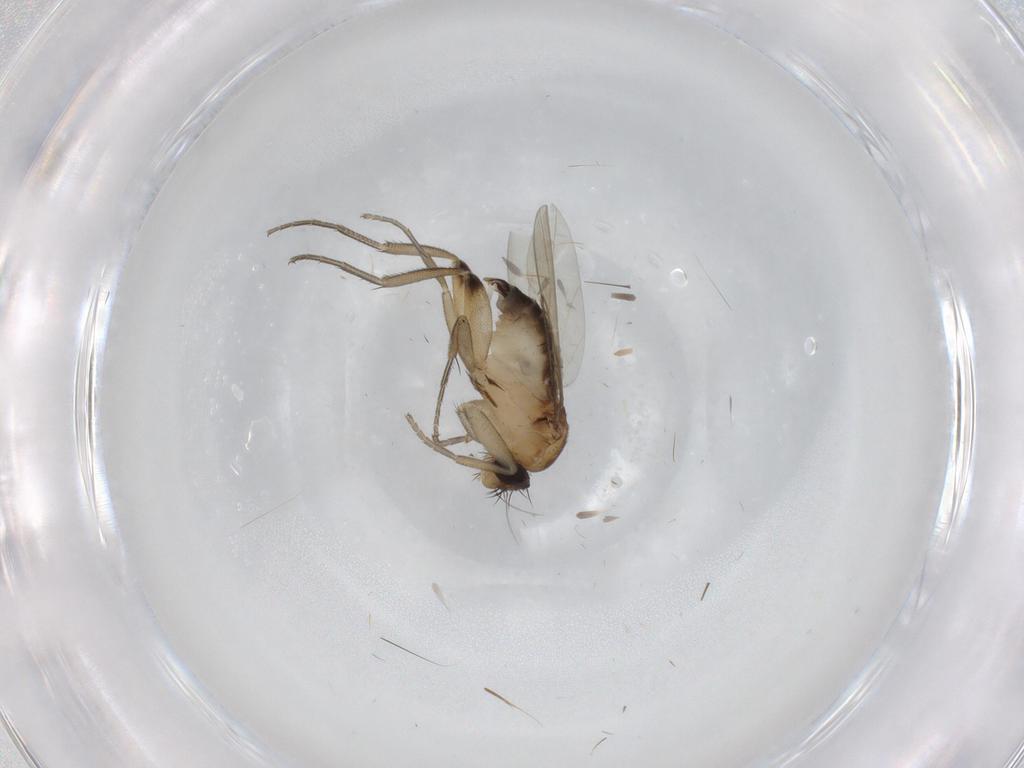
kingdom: Animalia
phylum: Arthropoda
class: Insecta
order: Diptera
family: Phoridae
